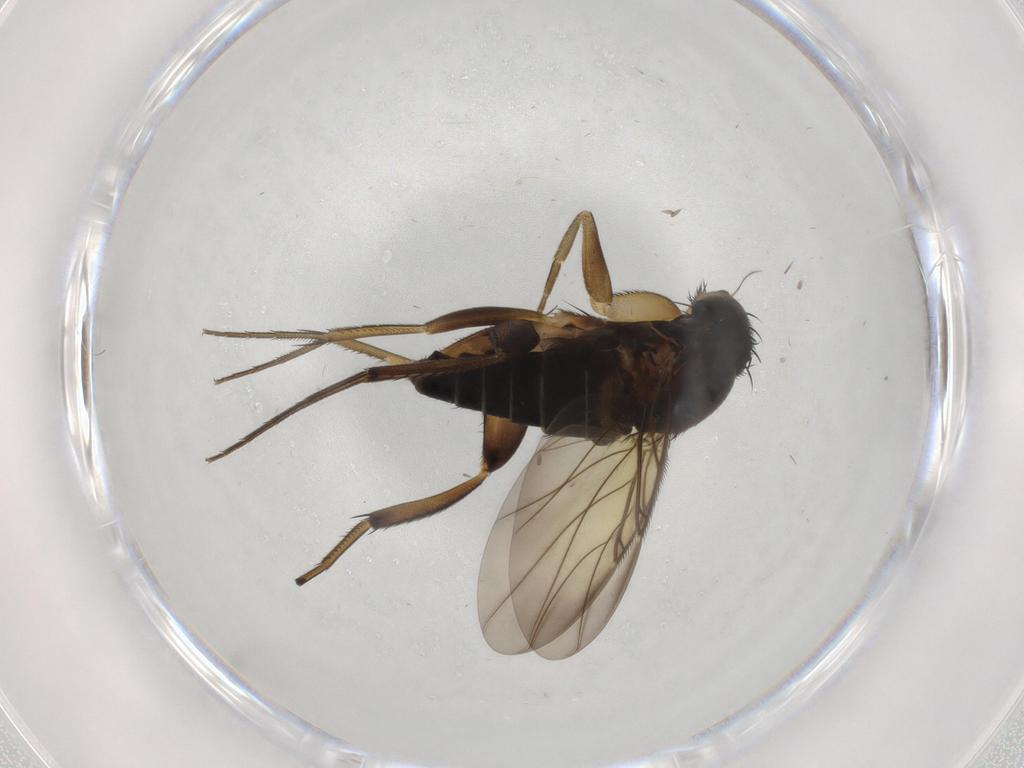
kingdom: Animalia
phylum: Arthropoda
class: Insecta
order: Diptera
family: Phoridae
